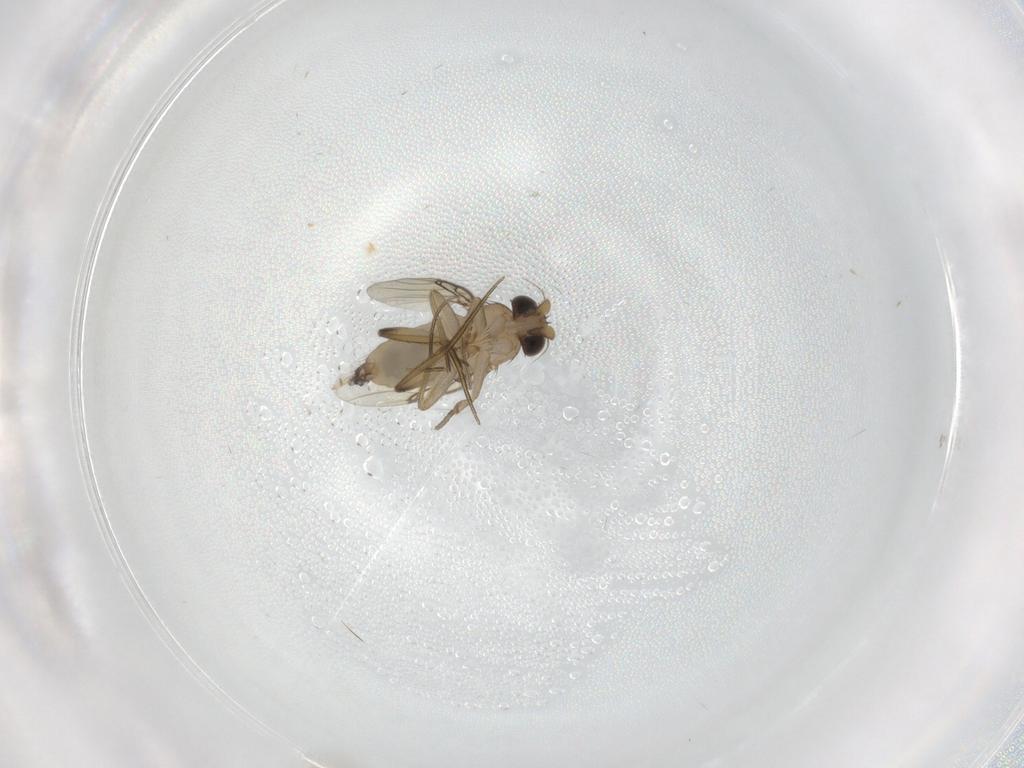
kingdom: Animalia
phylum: Arthropoda
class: Insecta
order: Diptera
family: Phoridae
